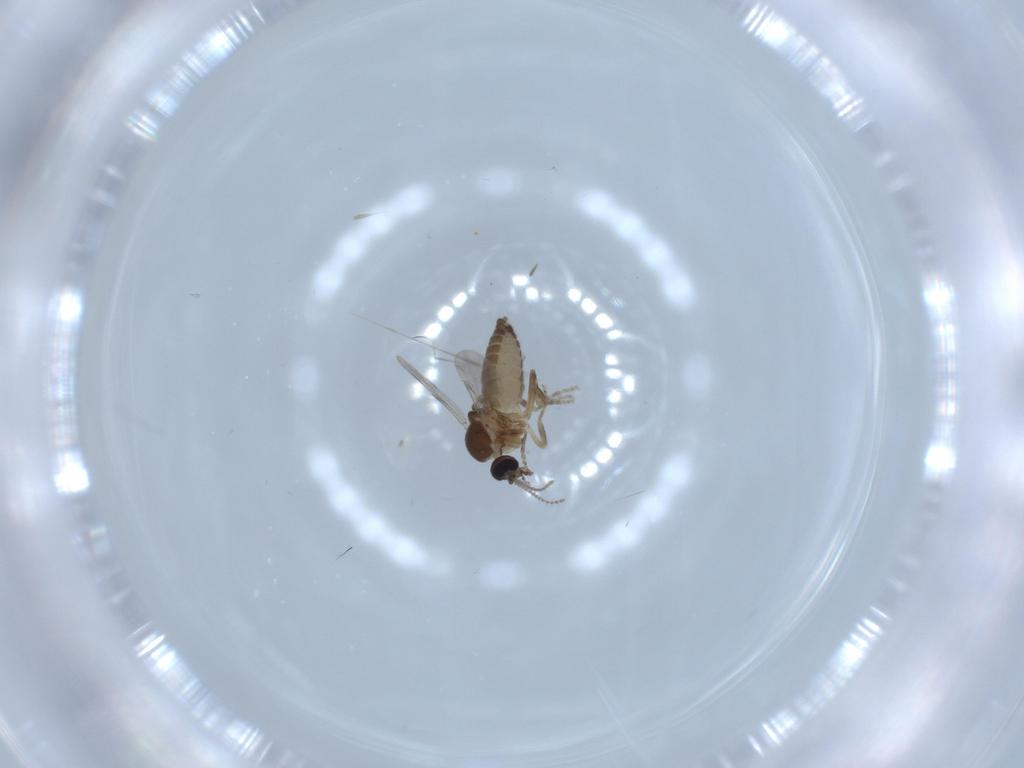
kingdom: Animalia
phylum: Arthropoda
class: Insecta
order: Diptera
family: Ceratopogonidae
